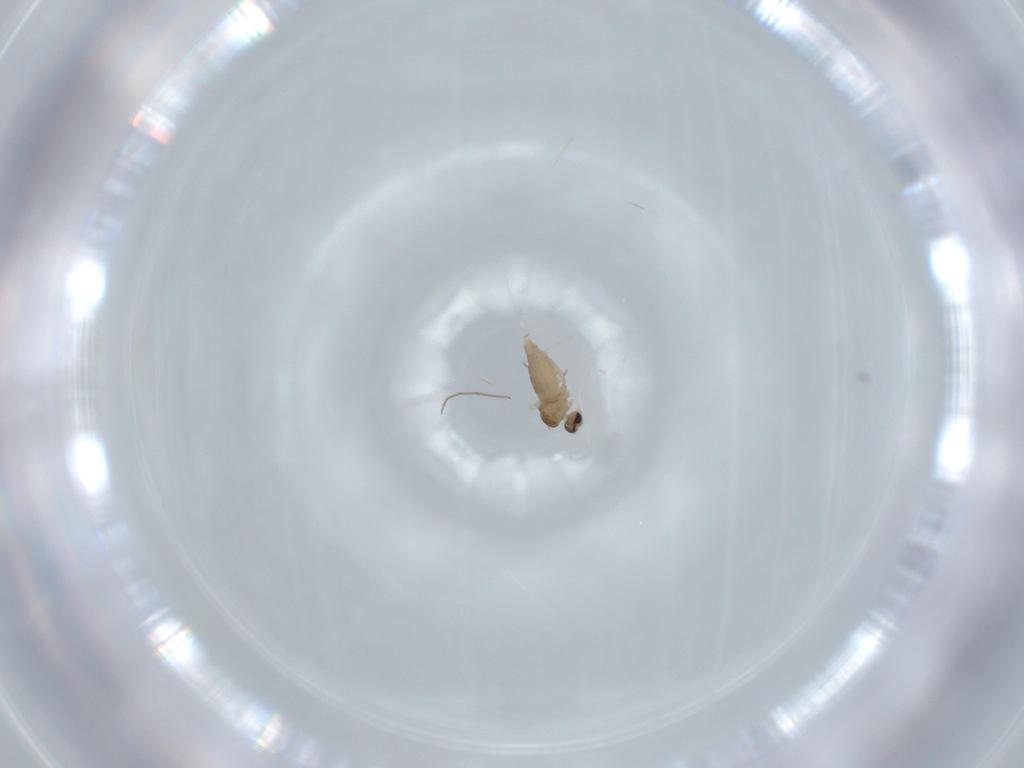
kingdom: Animalia
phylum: Arthropoda
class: Insecta
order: Diptera
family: Cecidomyiidae
